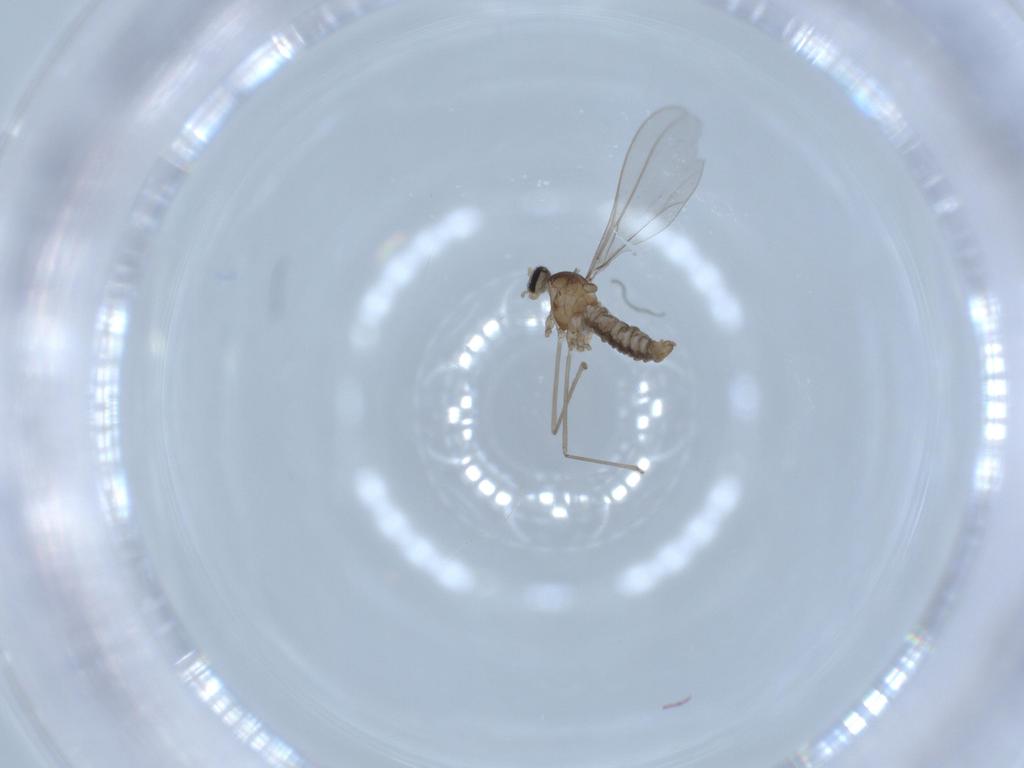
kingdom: Animalia
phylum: Arthropoda
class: Insecta
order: Diptera
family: Cecidomyiidae
